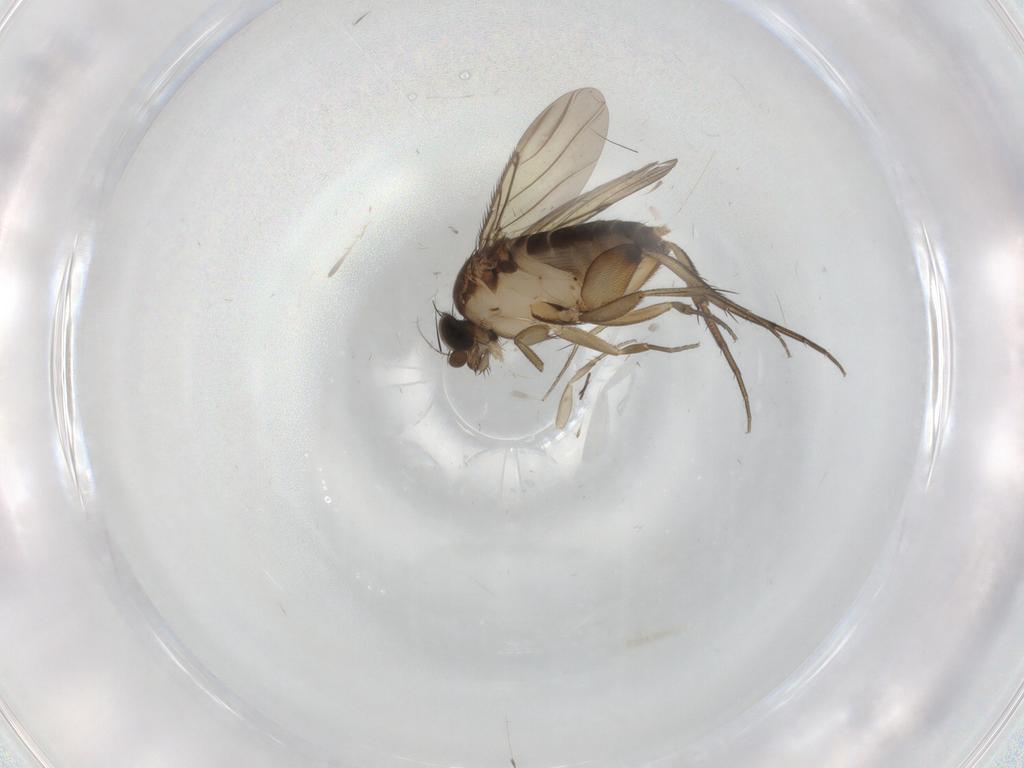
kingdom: Animalia
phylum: Arthropoda
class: Insecta
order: Diptera
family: Phoridae
